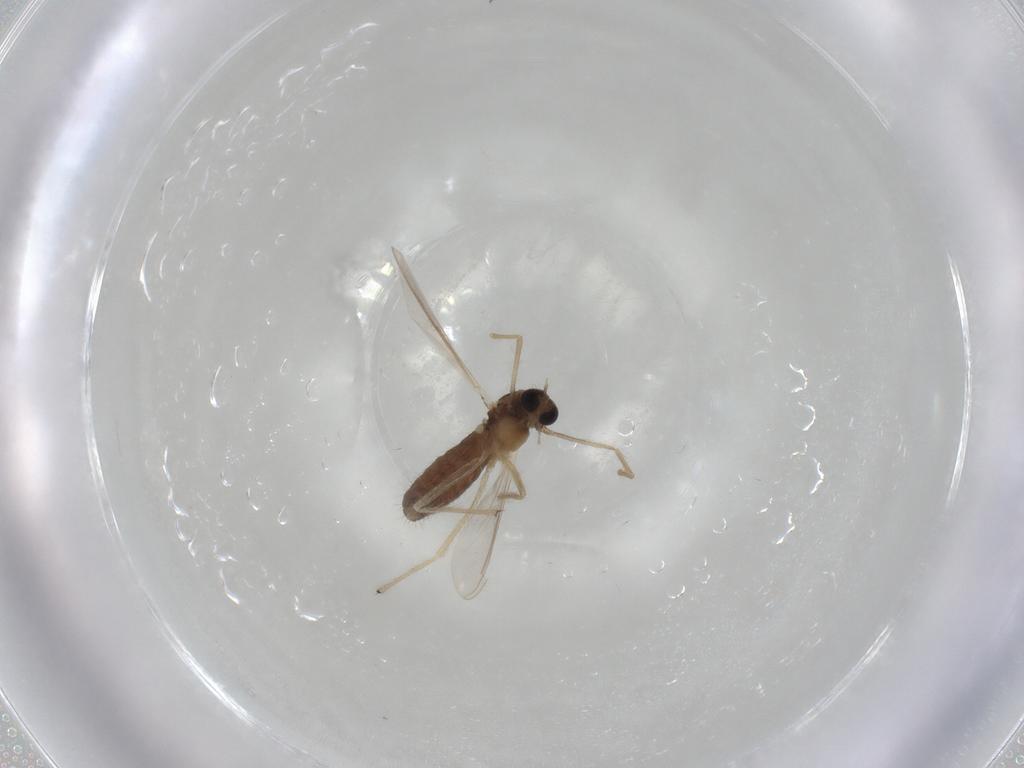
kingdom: Animalia
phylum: Arthropoda
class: Insecta
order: Diptera
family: Chironomidae
